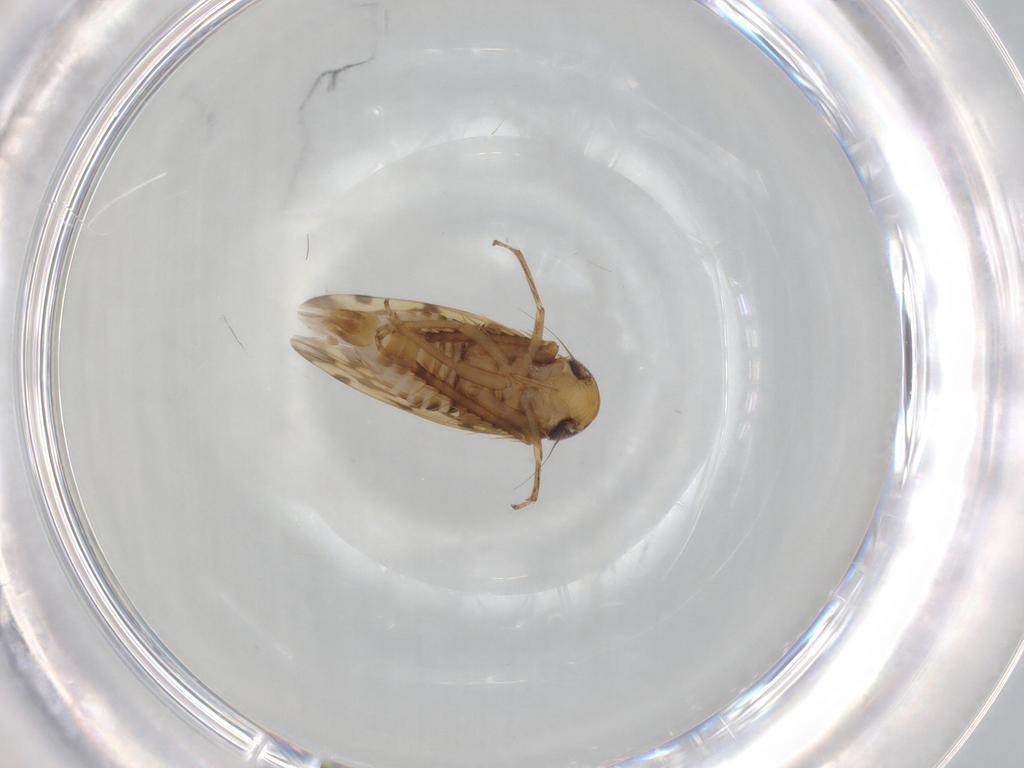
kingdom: Animalia
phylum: Arthropoda
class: Insecta
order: Hemiptera
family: Cicadellidae
